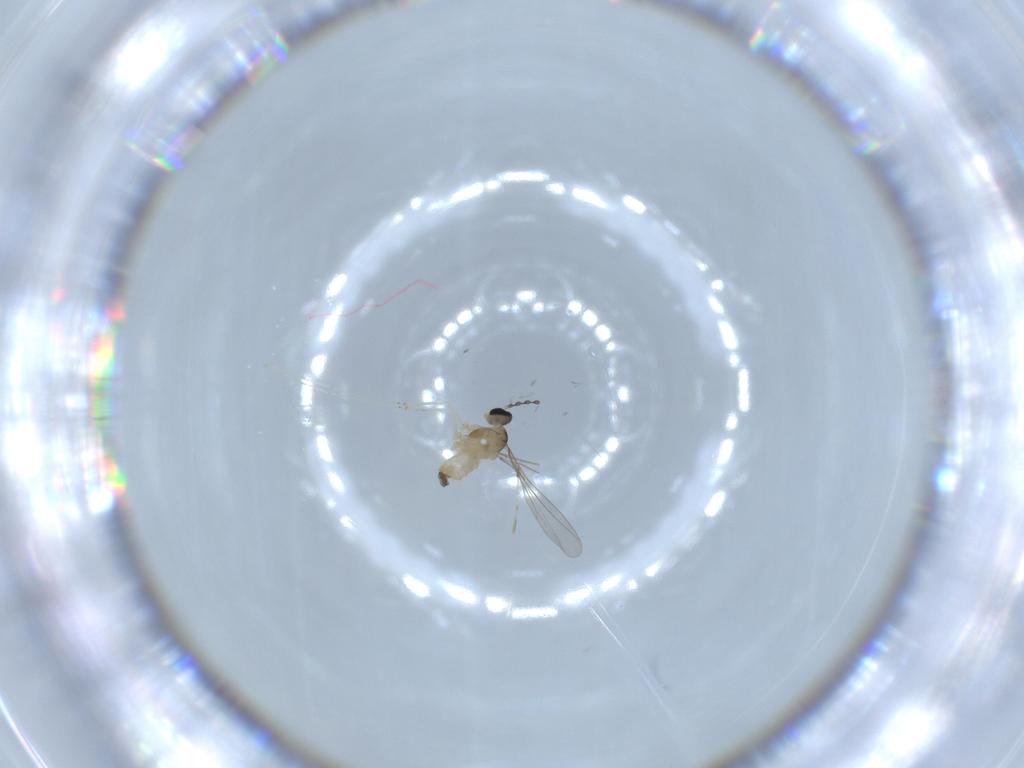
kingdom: Animalia
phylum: Arthropoda
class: Insecta
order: Diptera
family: Cecidomyiidae
